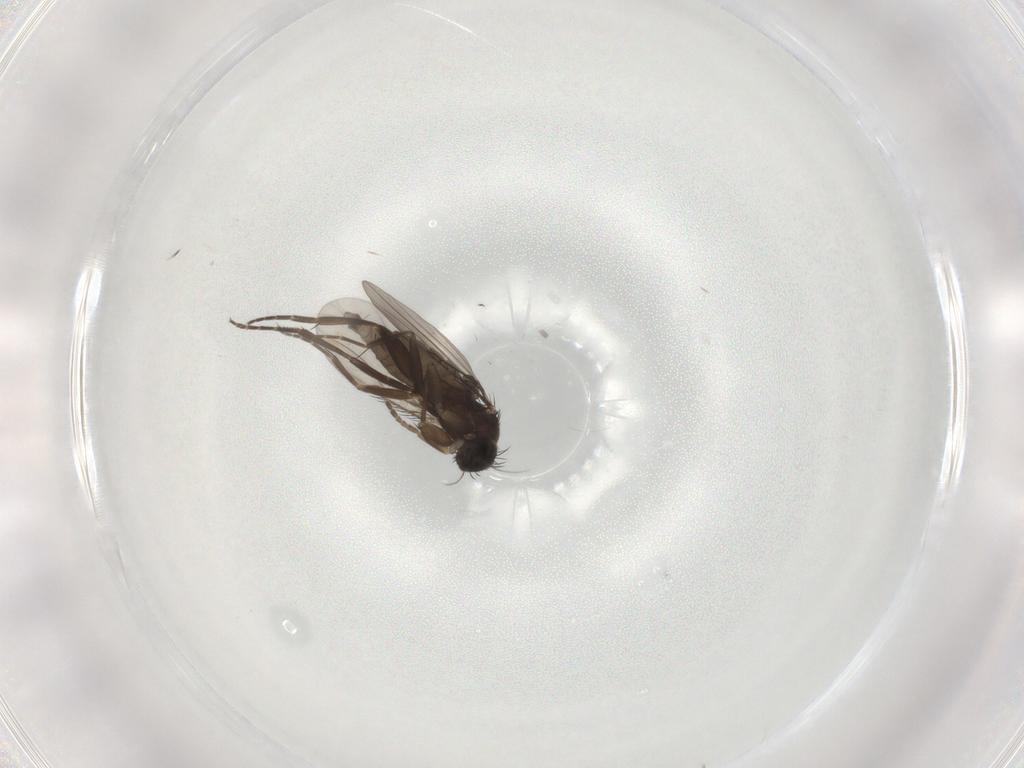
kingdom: Animalia
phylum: Arthropoda
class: Insecta
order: Diptera
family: Phoridae
